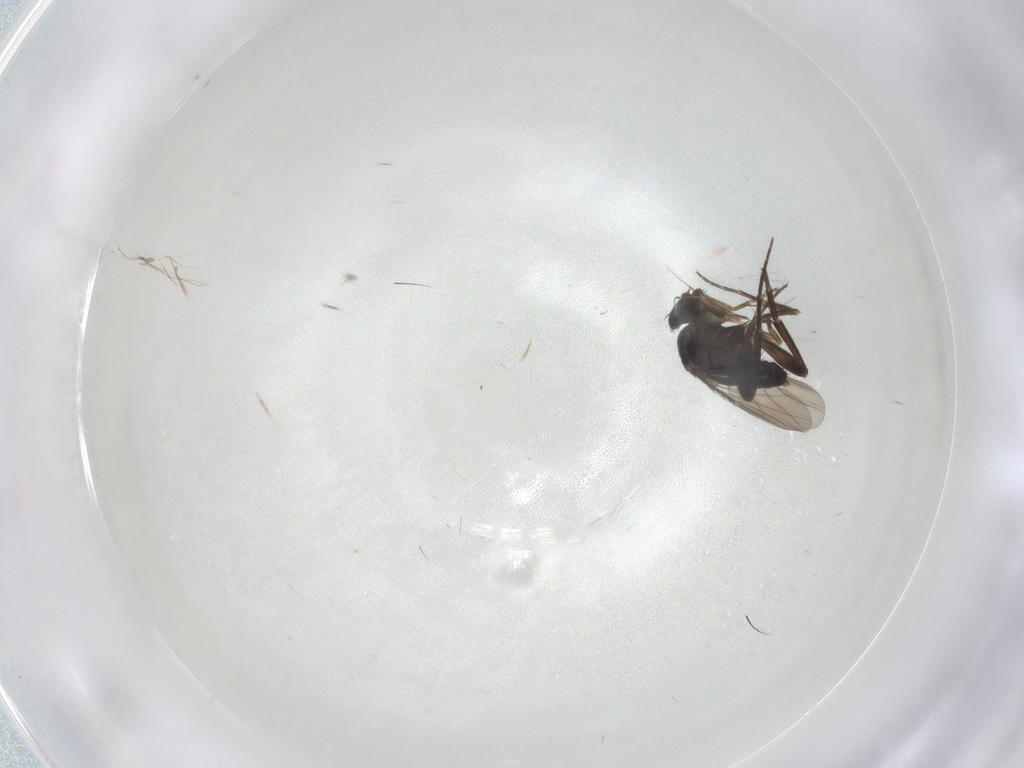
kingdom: Animalia
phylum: Arthropoda
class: Insecta
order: Diptera
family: Phoridae
